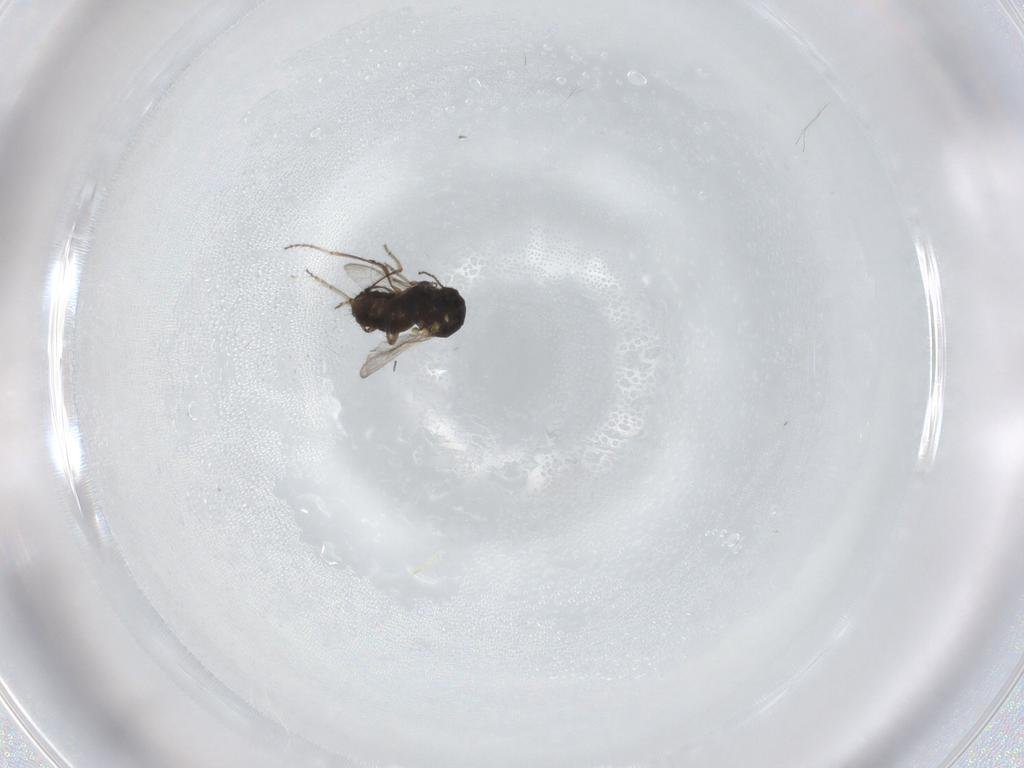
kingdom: Animalia
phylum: Arthropoda
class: Insecta
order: Diptera
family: Ceratopogonidae
